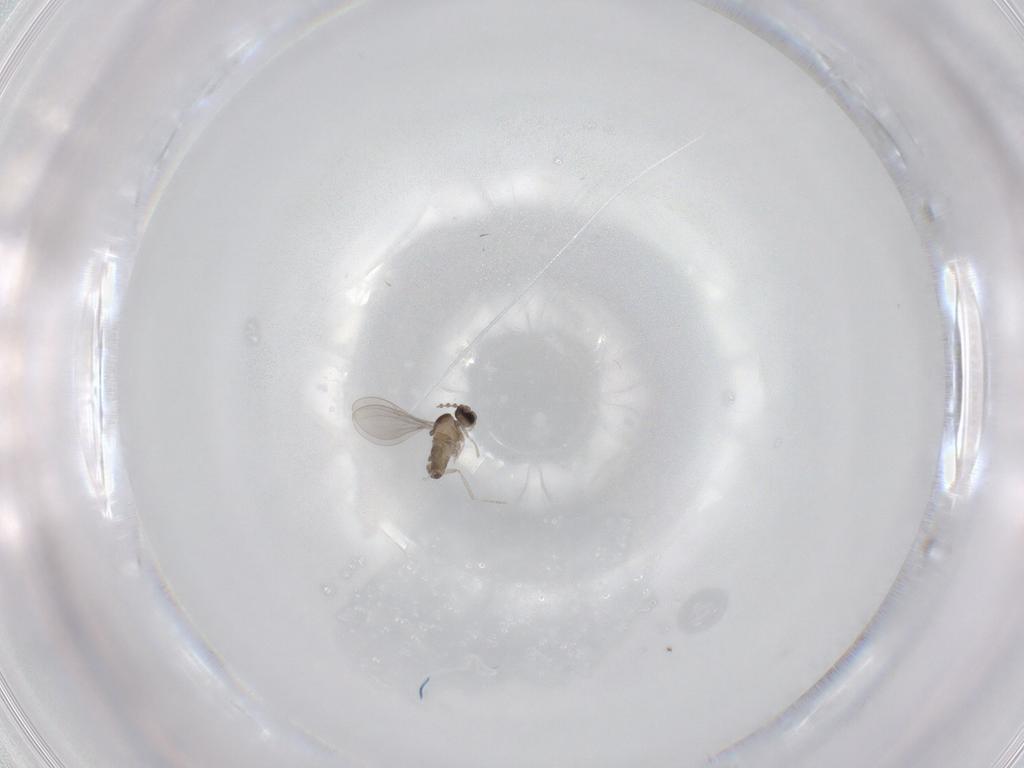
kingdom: Animalia
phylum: Arthropoda
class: Insecta
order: Diptera
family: Cecidomyiidae
